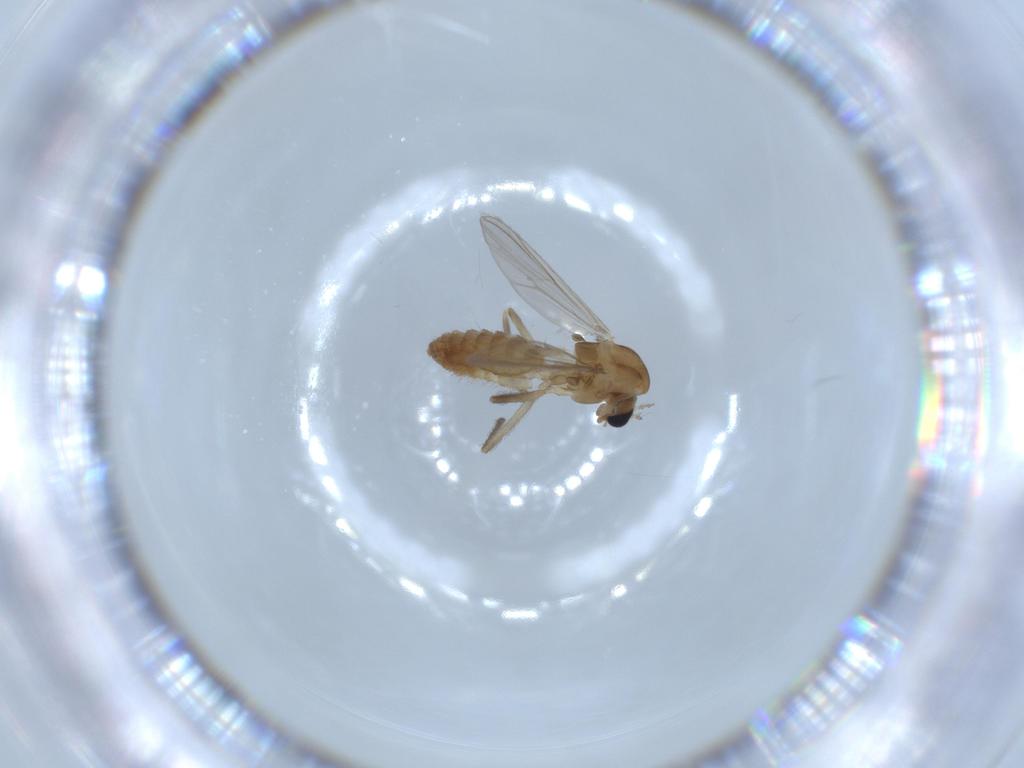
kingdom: Animalia
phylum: Arthropoda
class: Insecta
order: Diptera
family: Chironomidae
